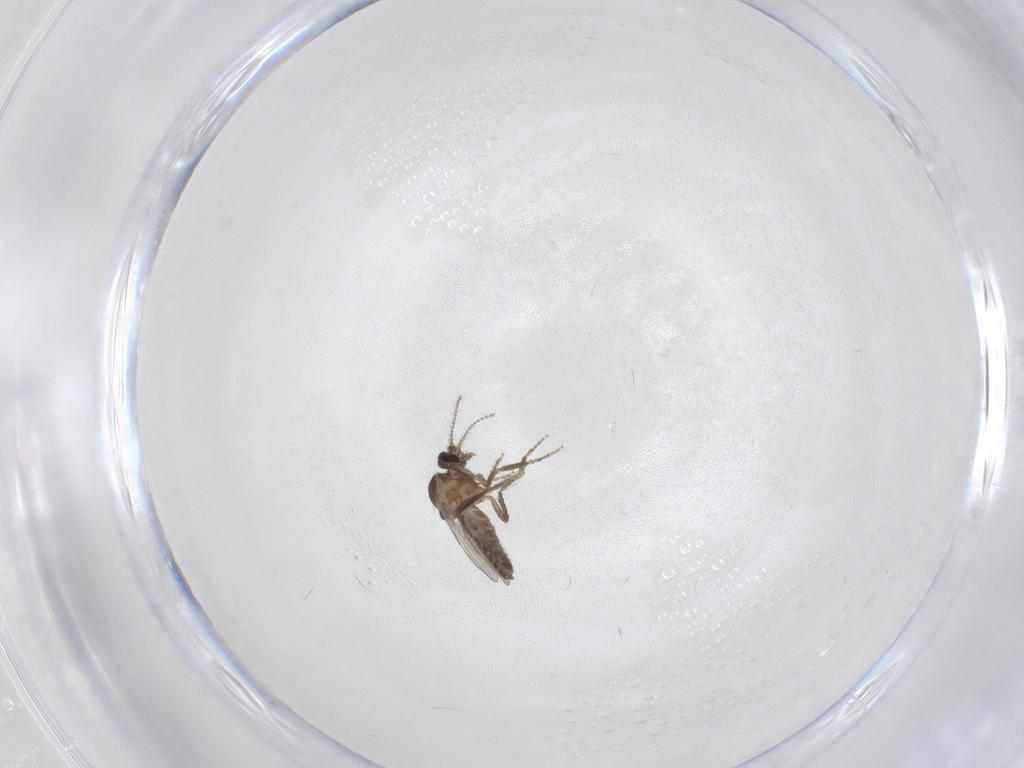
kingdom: Animalia
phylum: Arthropoda
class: Insecta
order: Diptera
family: Ceratopogonidae
